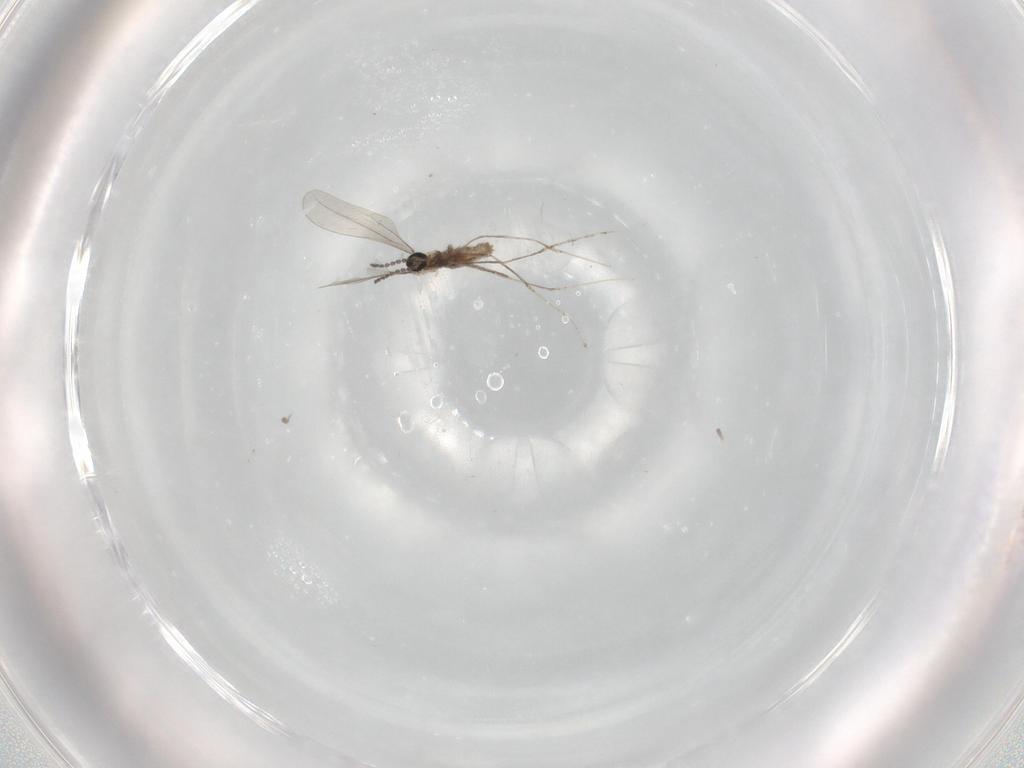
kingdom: Animalia
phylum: Arthropoda
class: Insecta
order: Diptera
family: Cecidomyiidae
